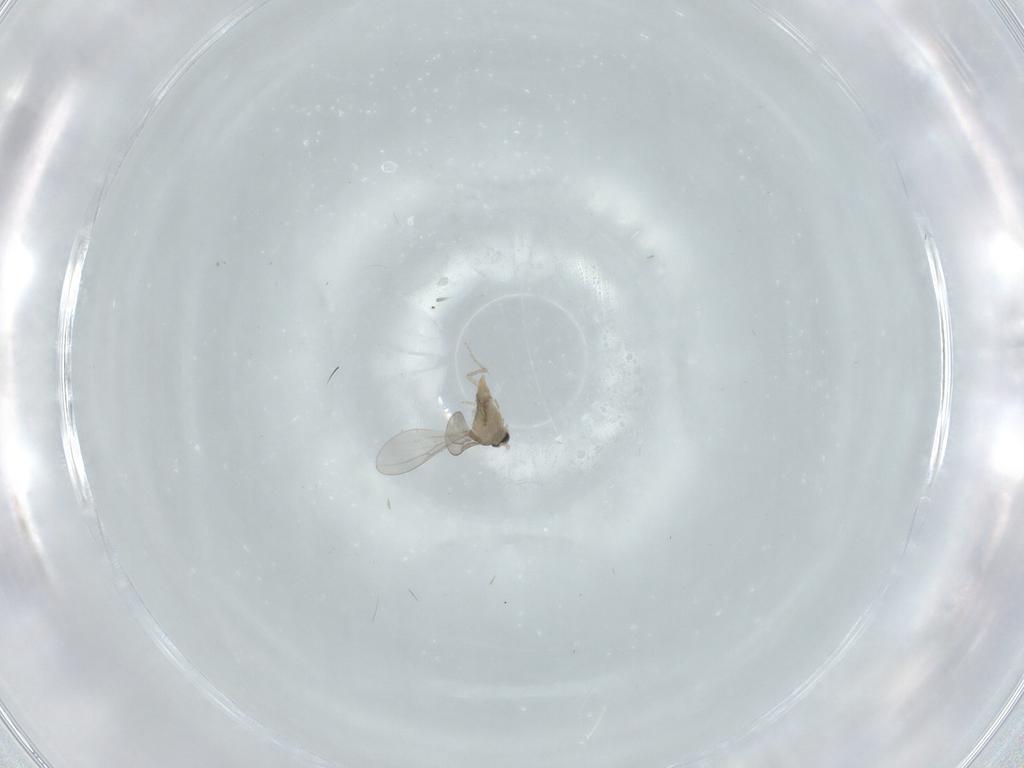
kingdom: Animalia
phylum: Arthropoda
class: Insecta
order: Diptera
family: Cecidomyiidae
